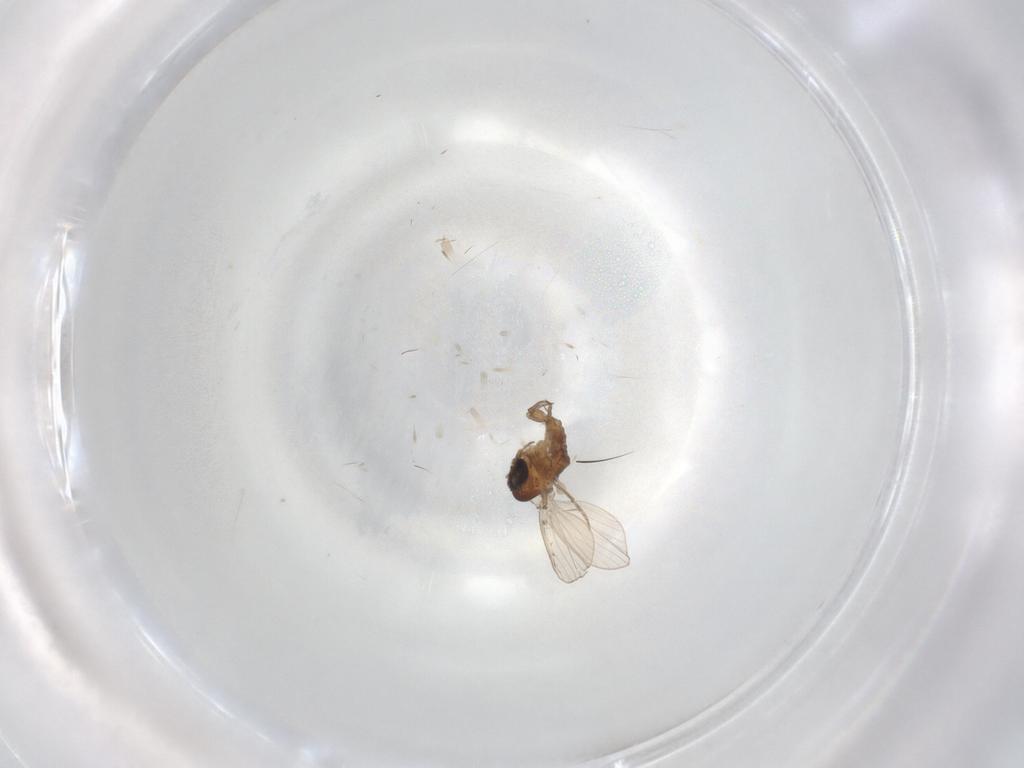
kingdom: Animalia
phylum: Arthropoda
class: Insecta
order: Diptera
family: Psychodidae
